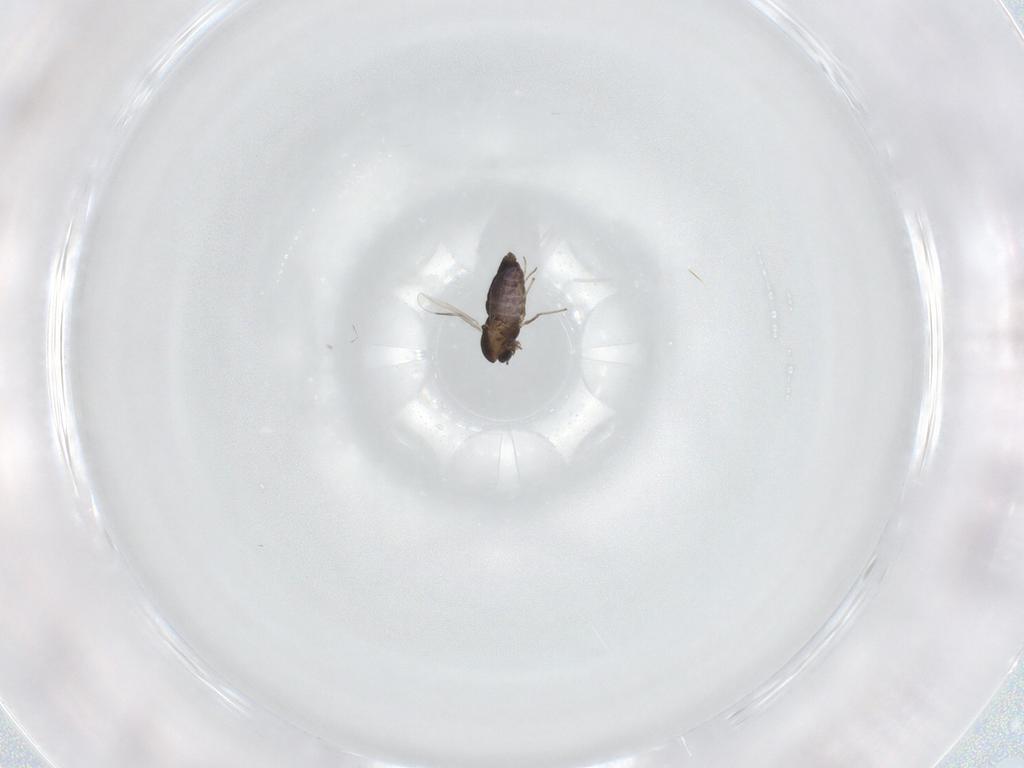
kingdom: Animalia
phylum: Arthropoda
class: Insecta
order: Diptera
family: Chironomidae
